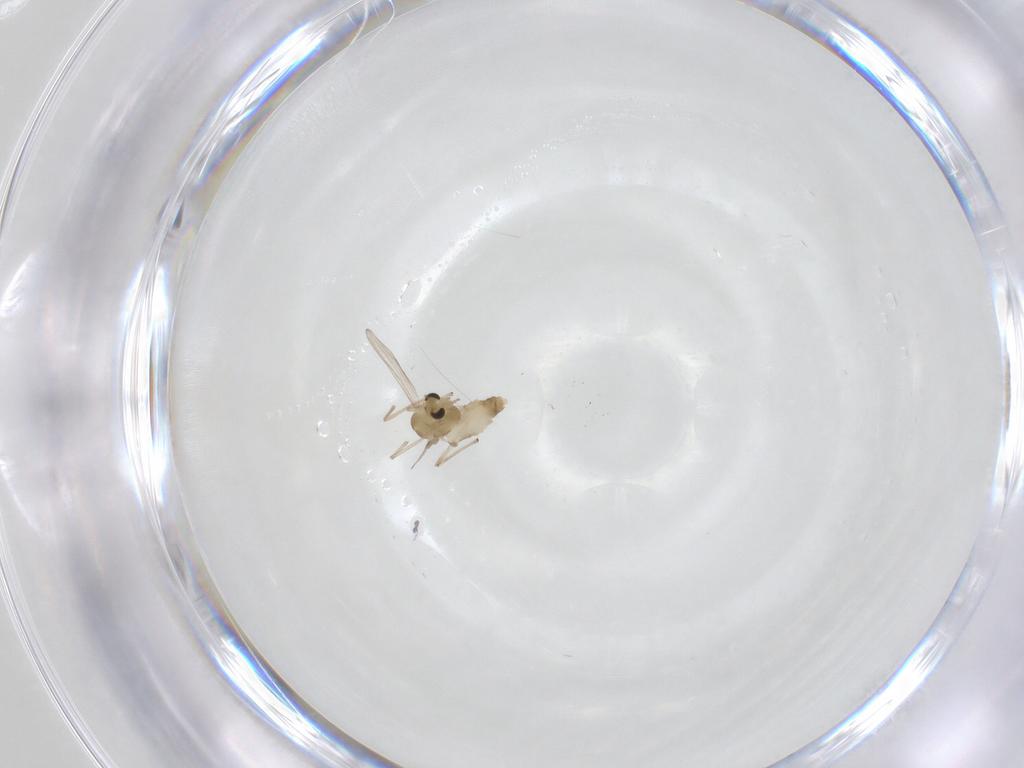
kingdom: Animalia
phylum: Arthropoda
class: Insecta
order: Diptera
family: Chironomidae
